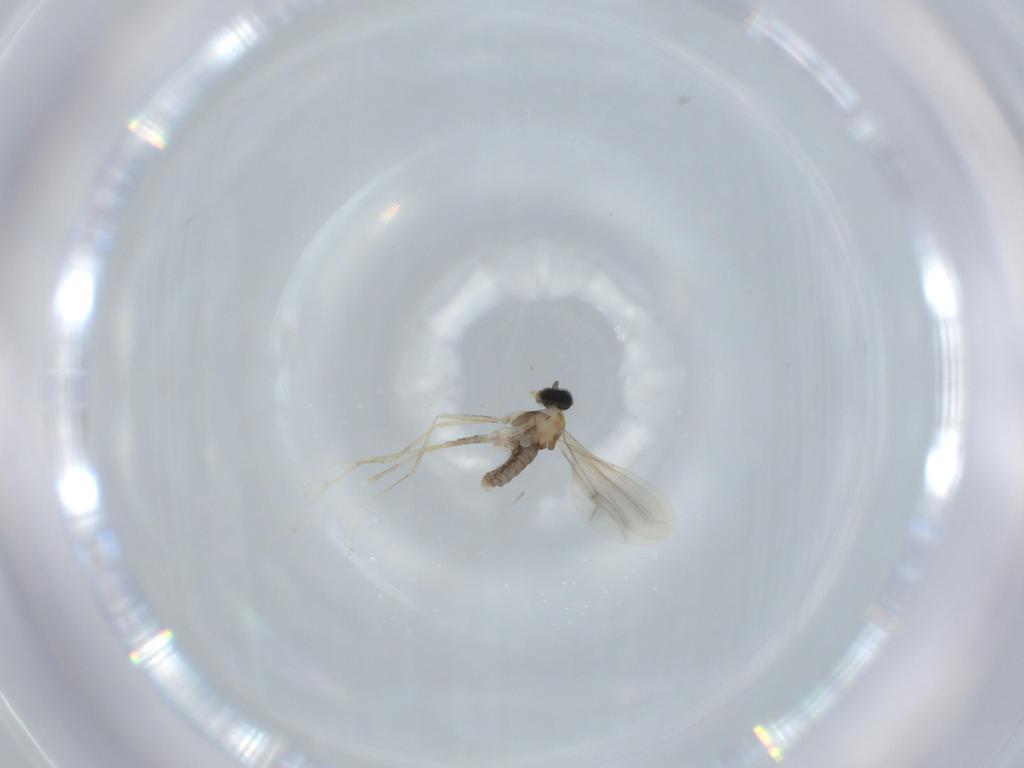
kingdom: Animalia
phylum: Arthropoda
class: Insecta
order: Diptera
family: Cecidomyiidae
